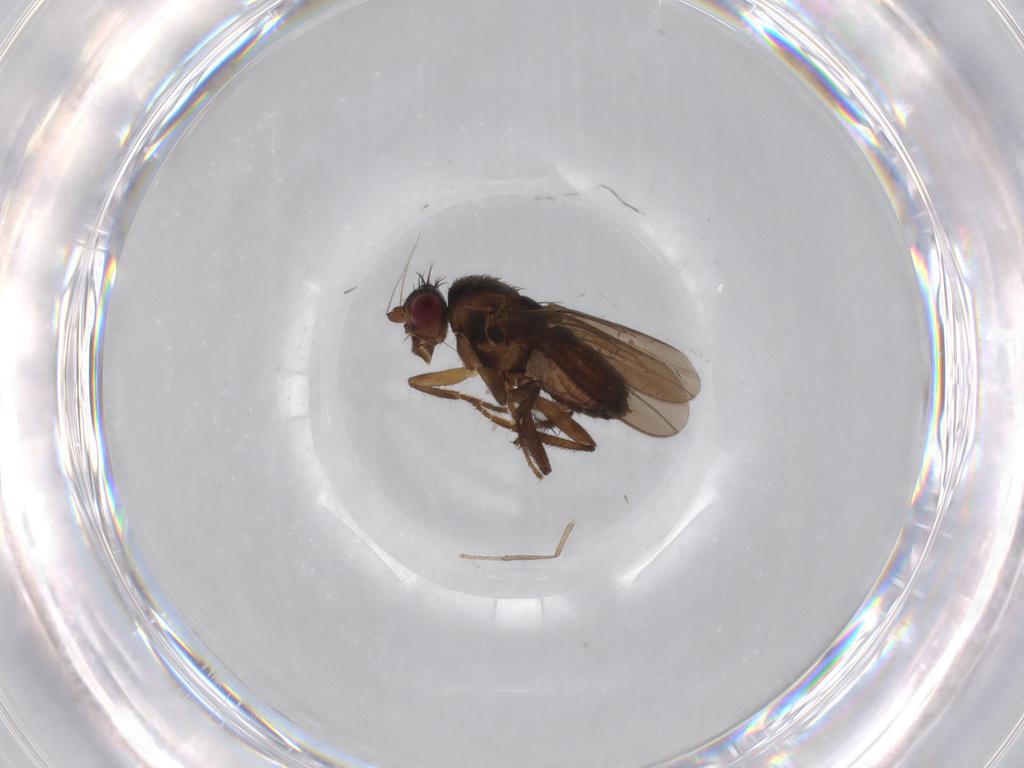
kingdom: Animalia
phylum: Arthropoda
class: Insecta
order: Diptera
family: Sphaeroceridae
